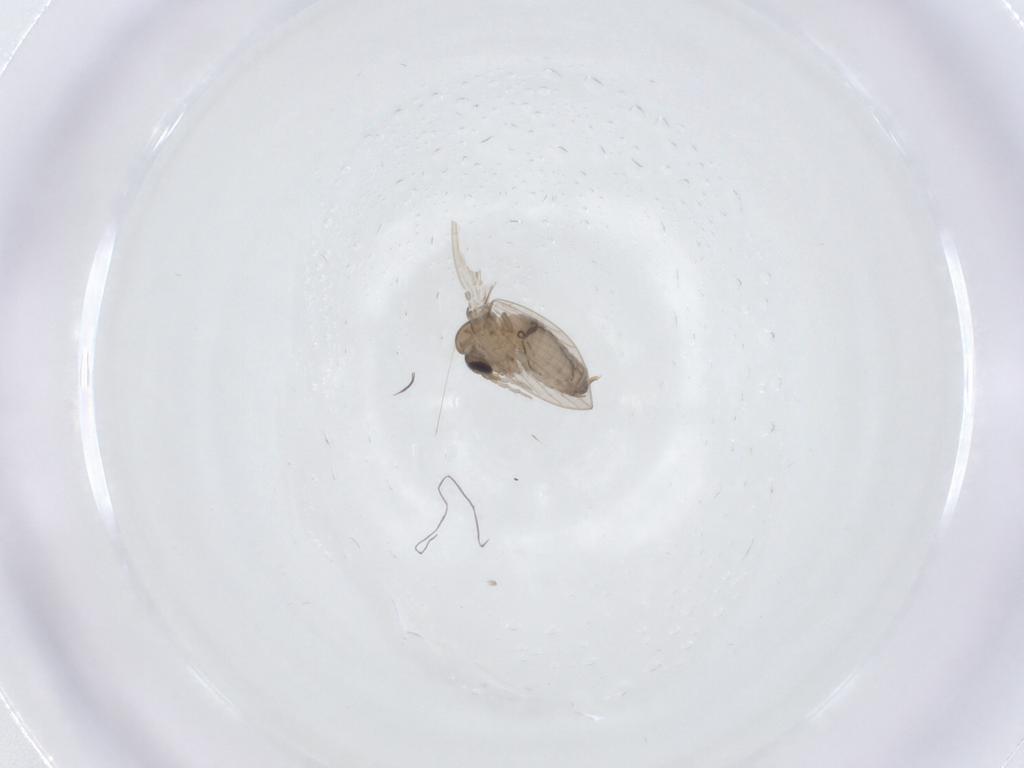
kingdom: Animalia
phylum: Arthropoda
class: Insecta
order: Diptera
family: Psychodidae
